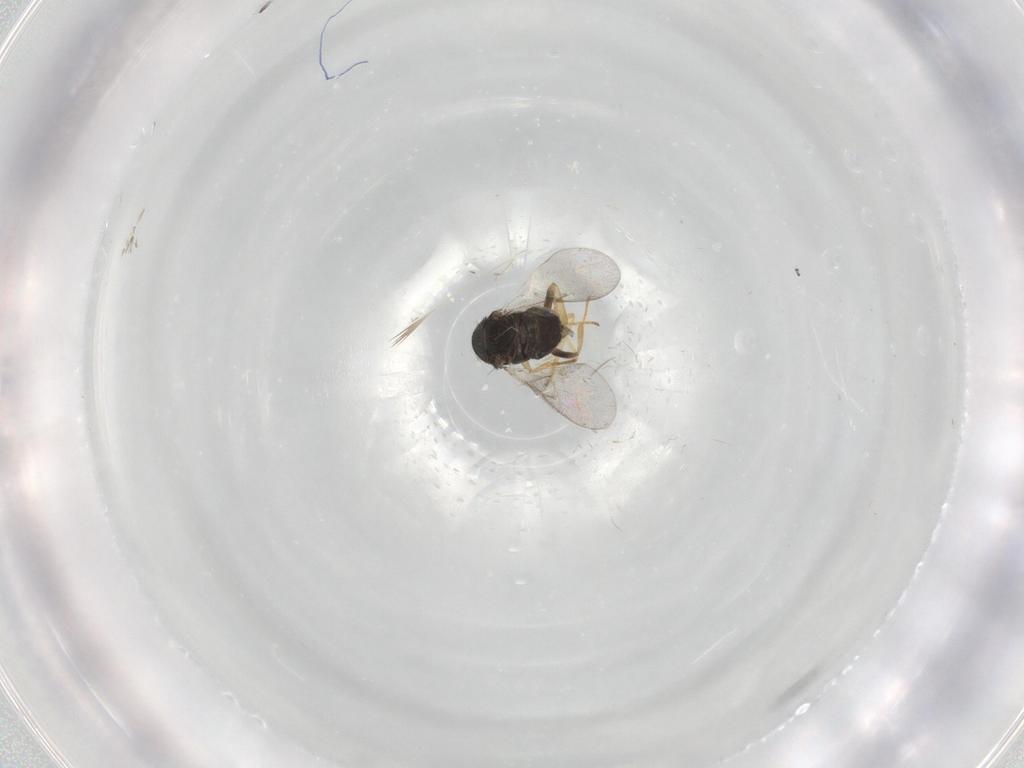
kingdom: Animalia
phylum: Arthropoda
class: Insecta
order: Hymenoptera
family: Encyrtidae
